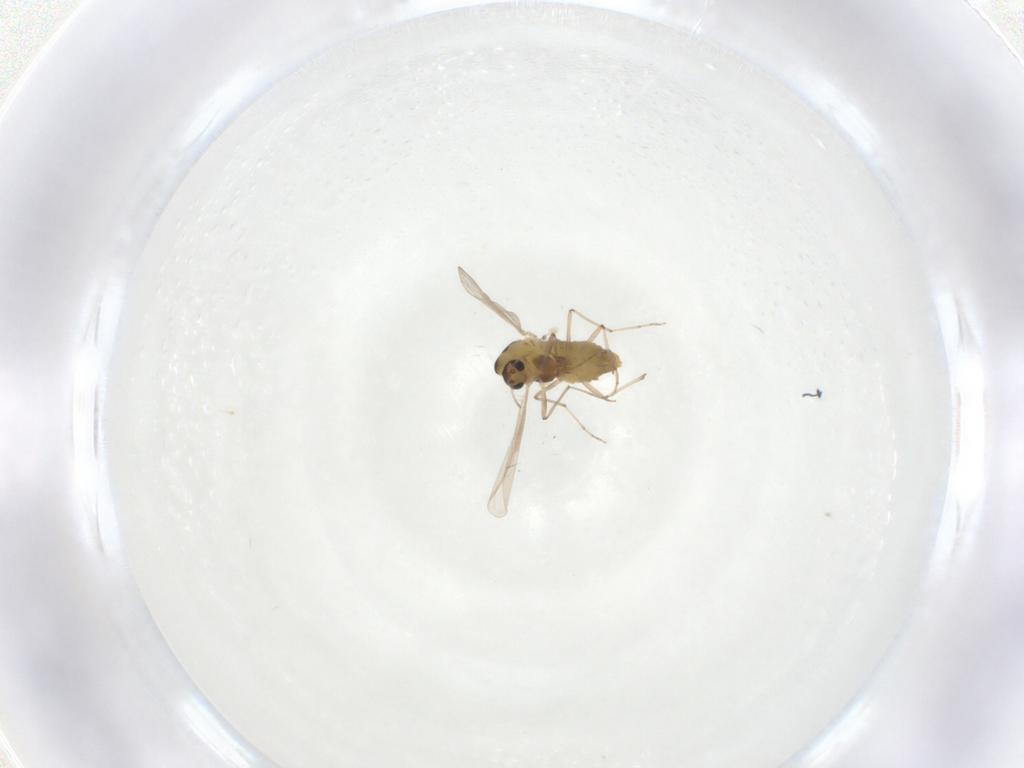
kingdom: Animalia
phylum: Arthropoda
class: Insecta
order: Diptera
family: Chironomidae
